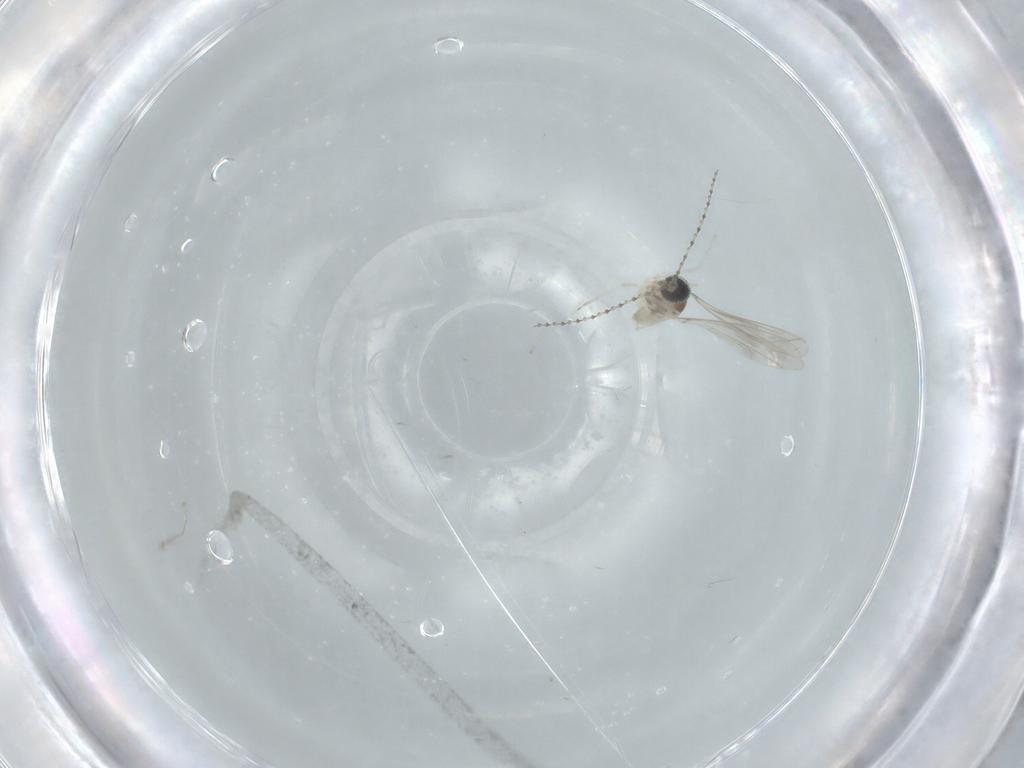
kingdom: Animalia
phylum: Arthropoda
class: Insecta
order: Diptera
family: Cecidomyiidae
